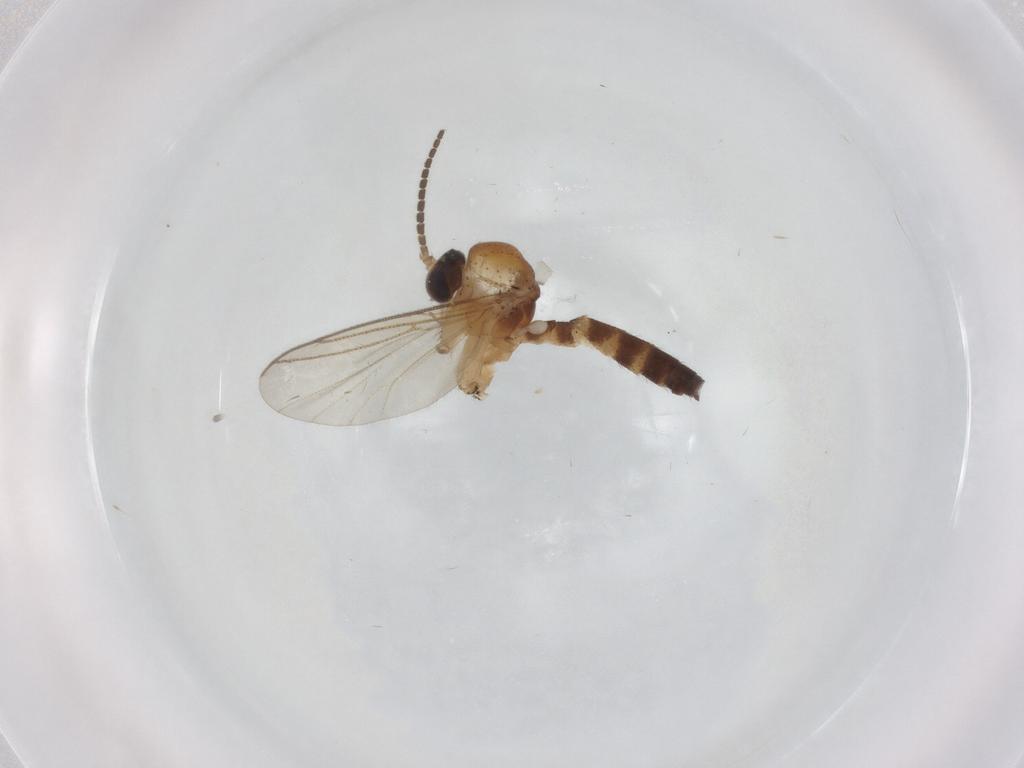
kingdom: Animalia
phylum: Arthropoda
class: Insecta
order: Diptera
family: Mycetophilidae
